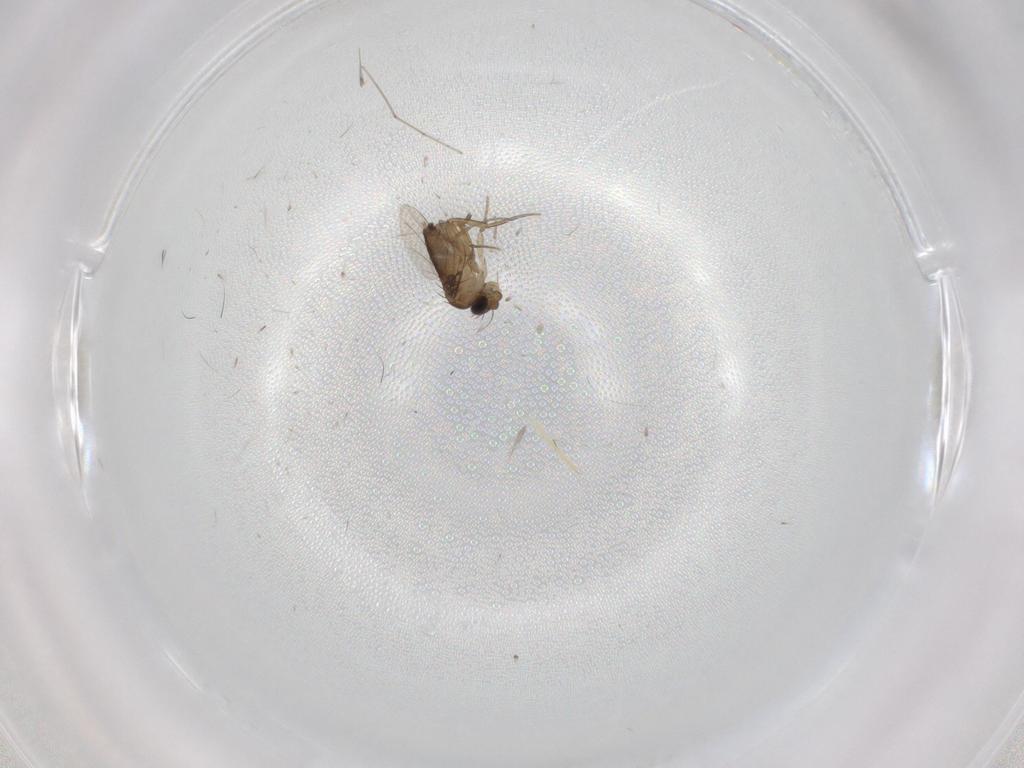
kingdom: Animalia
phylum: Arthropoda
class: Insecta
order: Diptera
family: Phoridae
